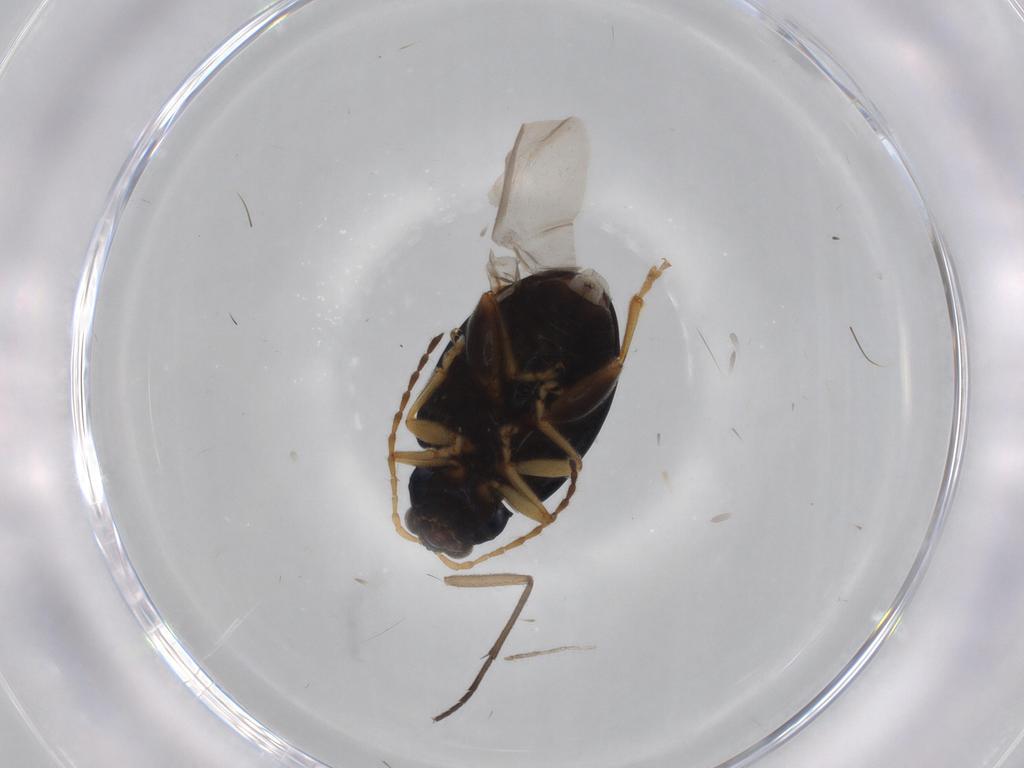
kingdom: Animalia
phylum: Arthropoda
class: Insecta
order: Coleoptera
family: Chrysomelidae
